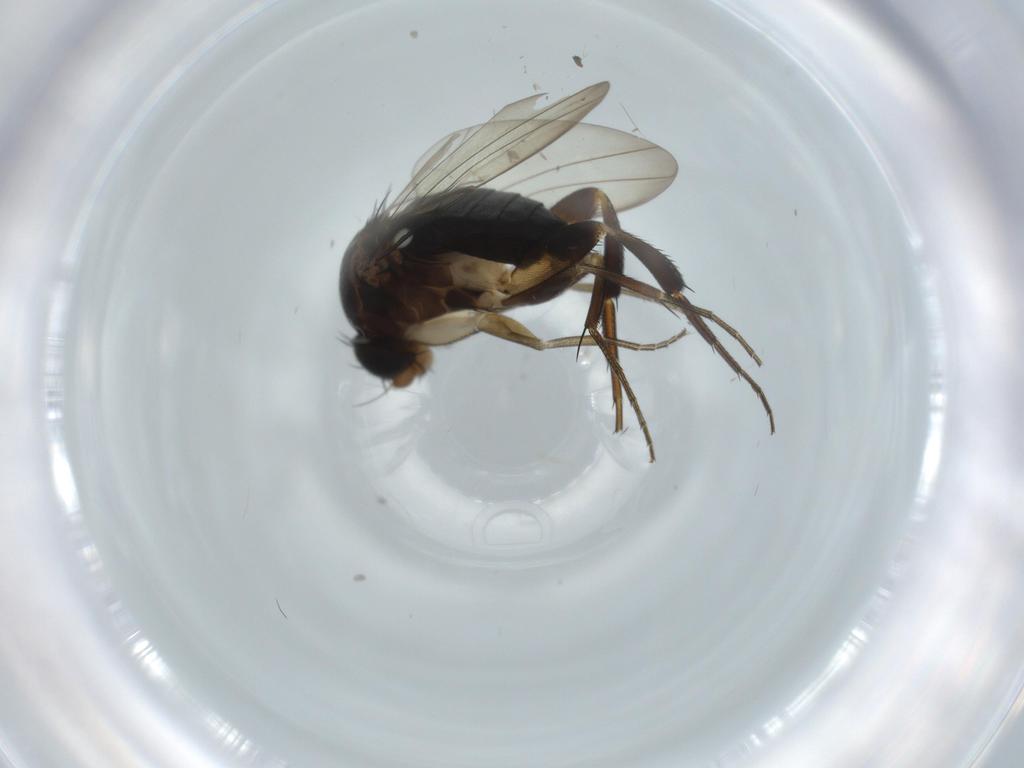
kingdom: Animalia
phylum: Arthropoda
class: Insecta
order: Diptera
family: Phoridae
